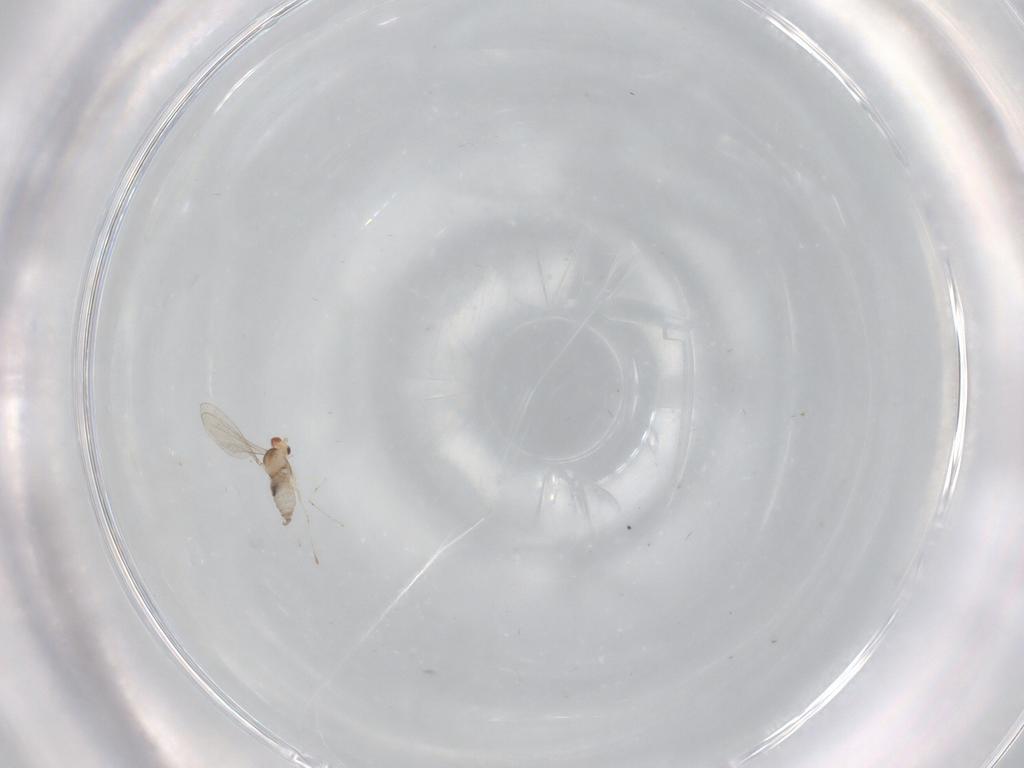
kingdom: Animalia
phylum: Arthropoda
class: Insecta
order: Diptera
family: Cecidomyiidae
